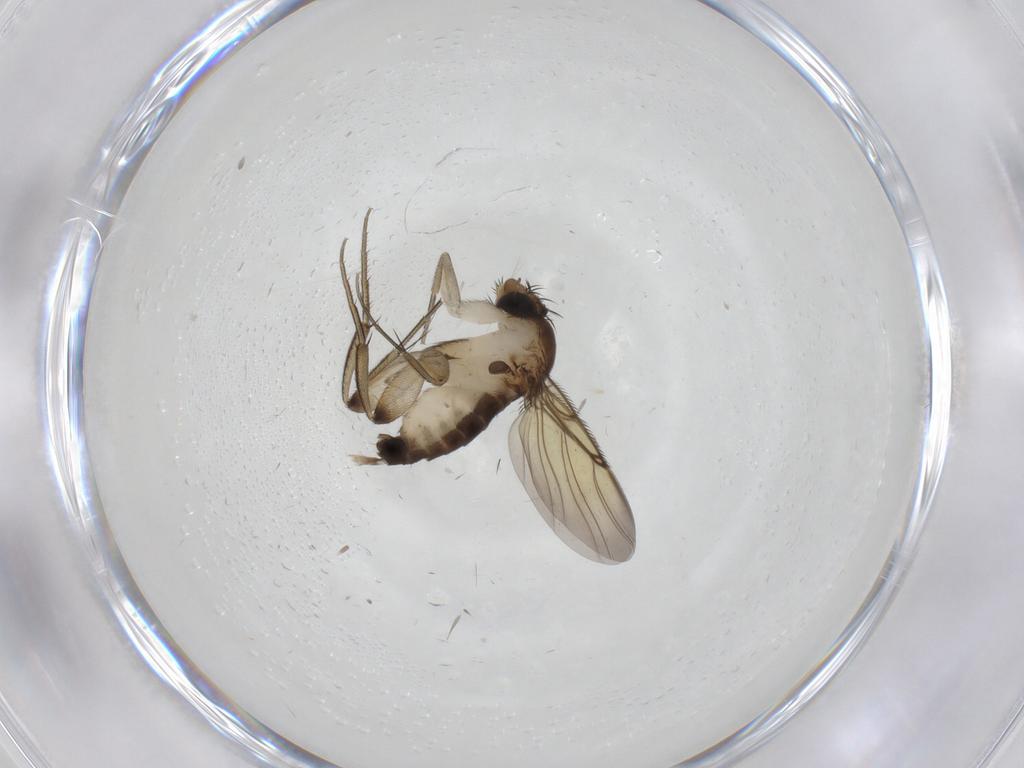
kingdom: Animalia
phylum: Arthropoda
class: Insecta
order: Diptera
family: Phoridae
